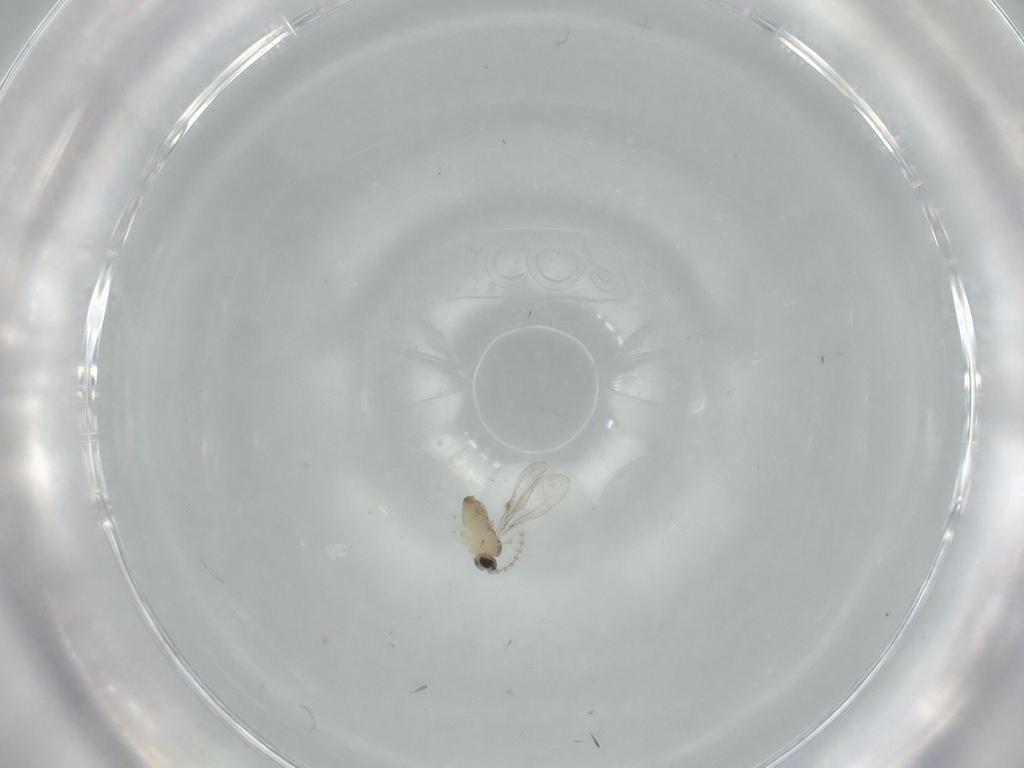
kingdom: Animalia
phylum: Arthropoda
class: Insecta
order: Diptera
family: Cecidomyiidae
